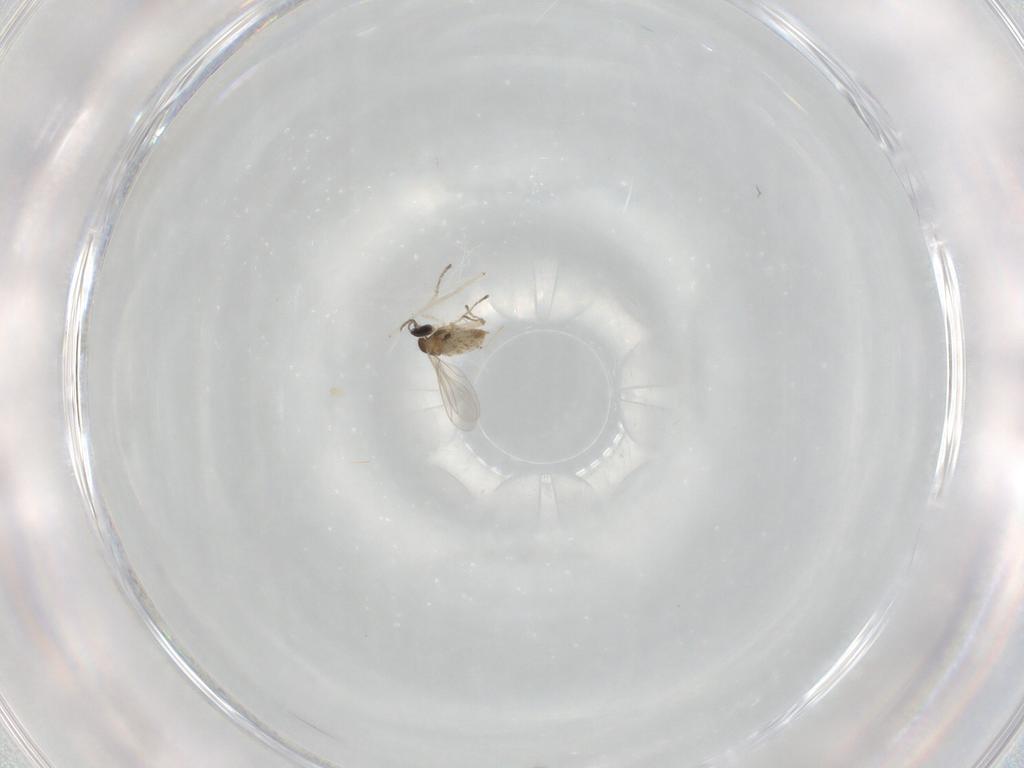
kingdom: Animalia
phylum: Arthropoda
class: Insecta
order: Diptera
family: Cecidomyiidae
